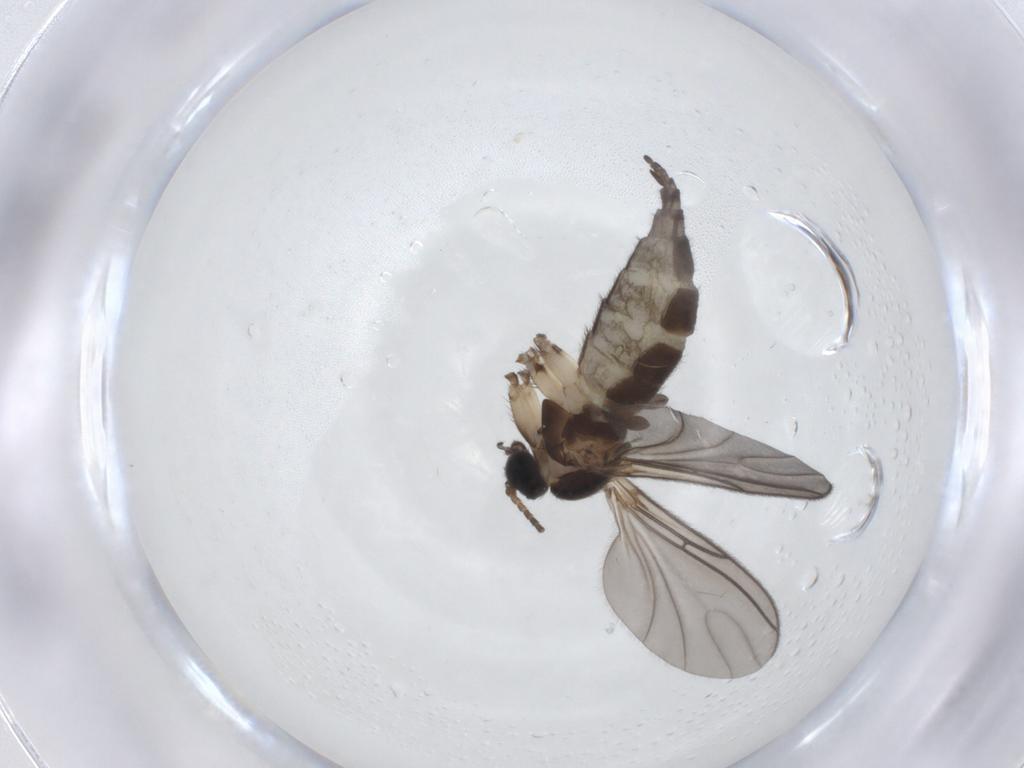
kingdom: Animalia
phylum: Arthropoda
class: Insecta
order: Diptera
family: Sciaridae
